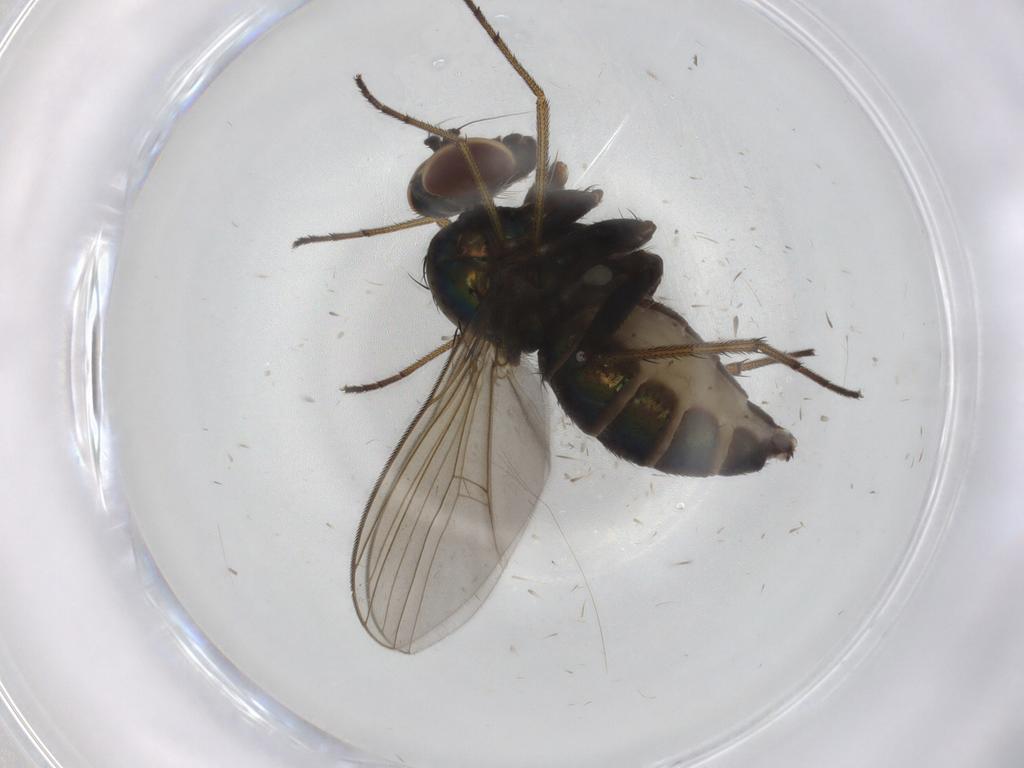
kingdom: Animalia
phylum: Arthropoda
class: Insecta
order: Diptera
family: Dolichopodidae
